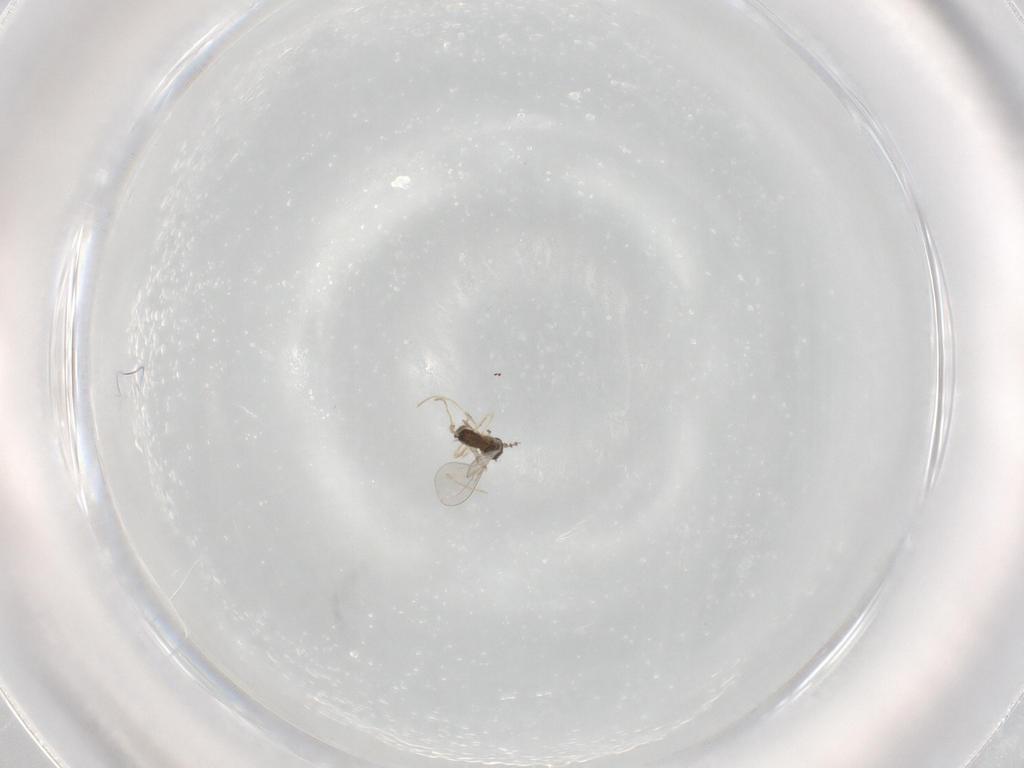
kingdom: Animalia
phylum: Arthropoda
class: Insecta
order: Diptera
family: Cecidomyiidae
